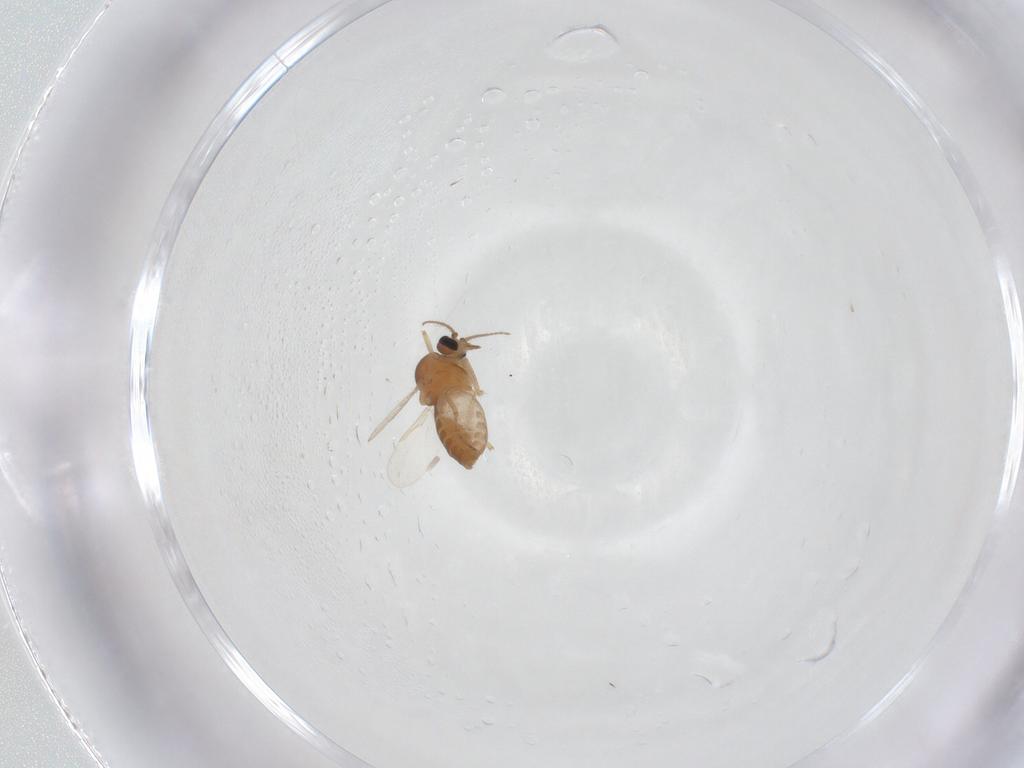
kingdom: Animalia
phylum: Arthropoda
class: Insecta
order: Diptera
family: Ceratopogonidae
